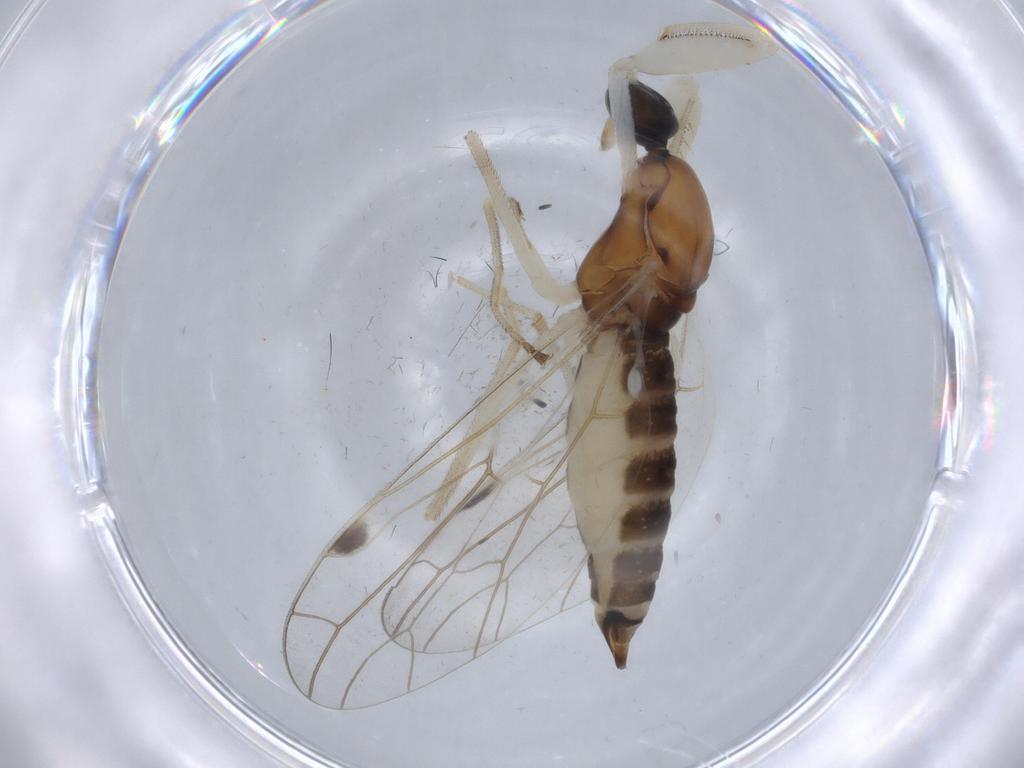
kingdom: Animalia
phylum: Arthropoda
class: Insecta
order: Diptera
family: Sciaridae
